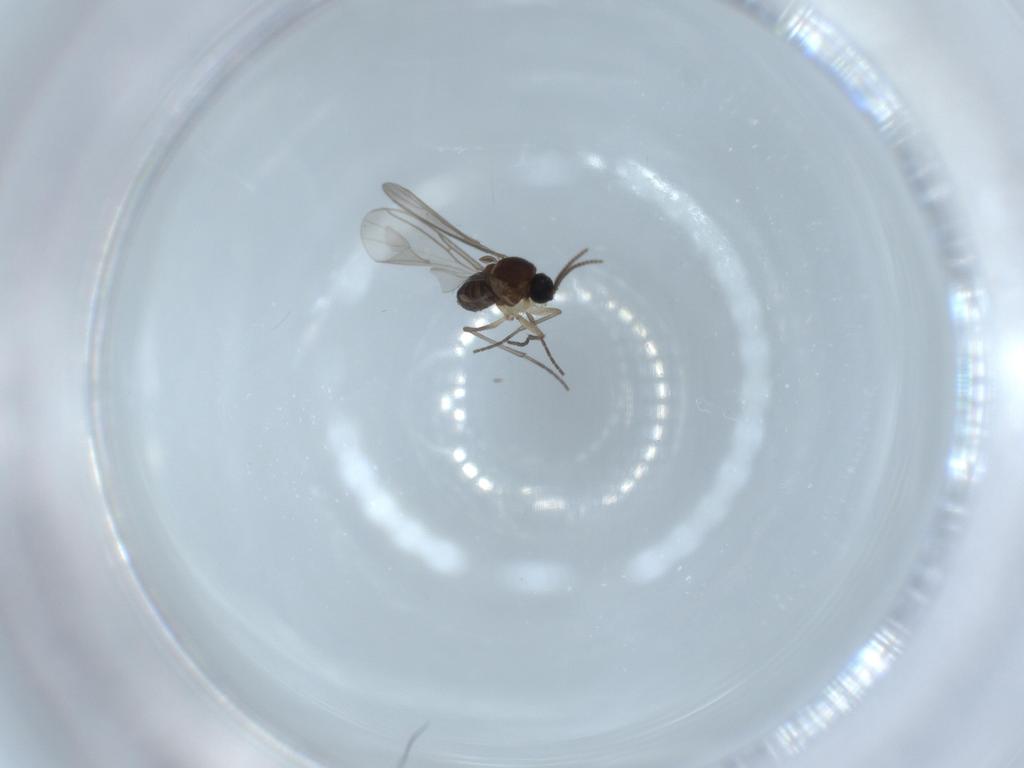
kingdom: Animalia
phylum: Arthropoda
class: Insecta
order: Diptera
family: Sciaridae
